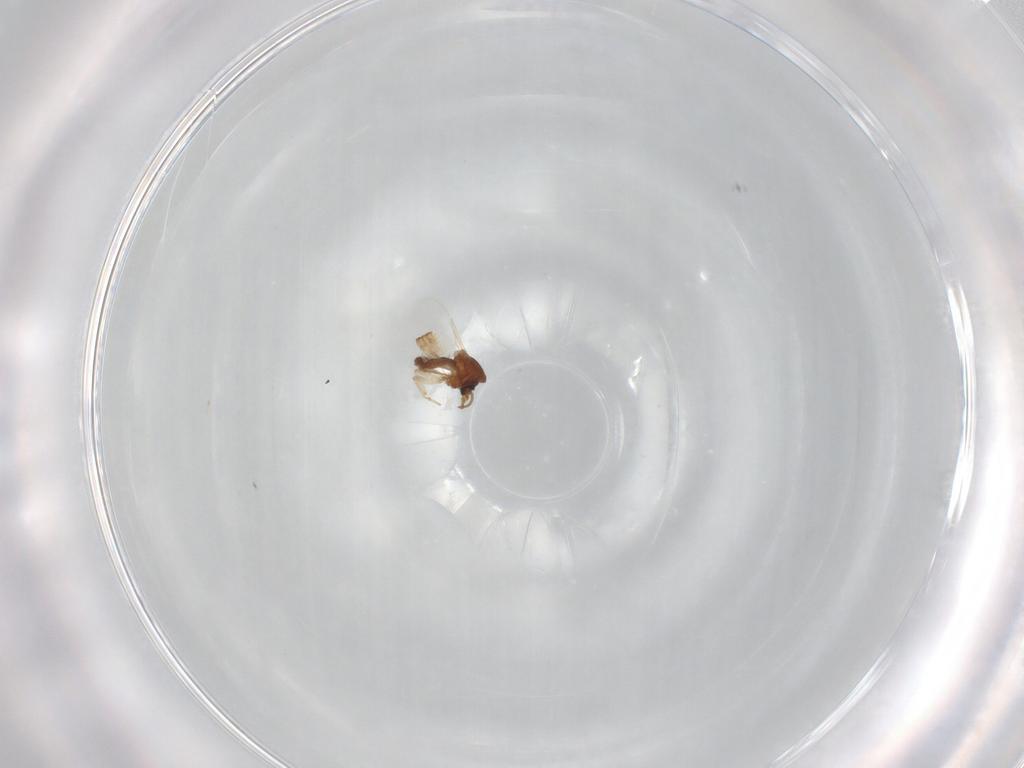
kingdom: Animalia
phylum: Arthropoda
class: Insecta
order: Diptera
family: Ceratopogonidae
